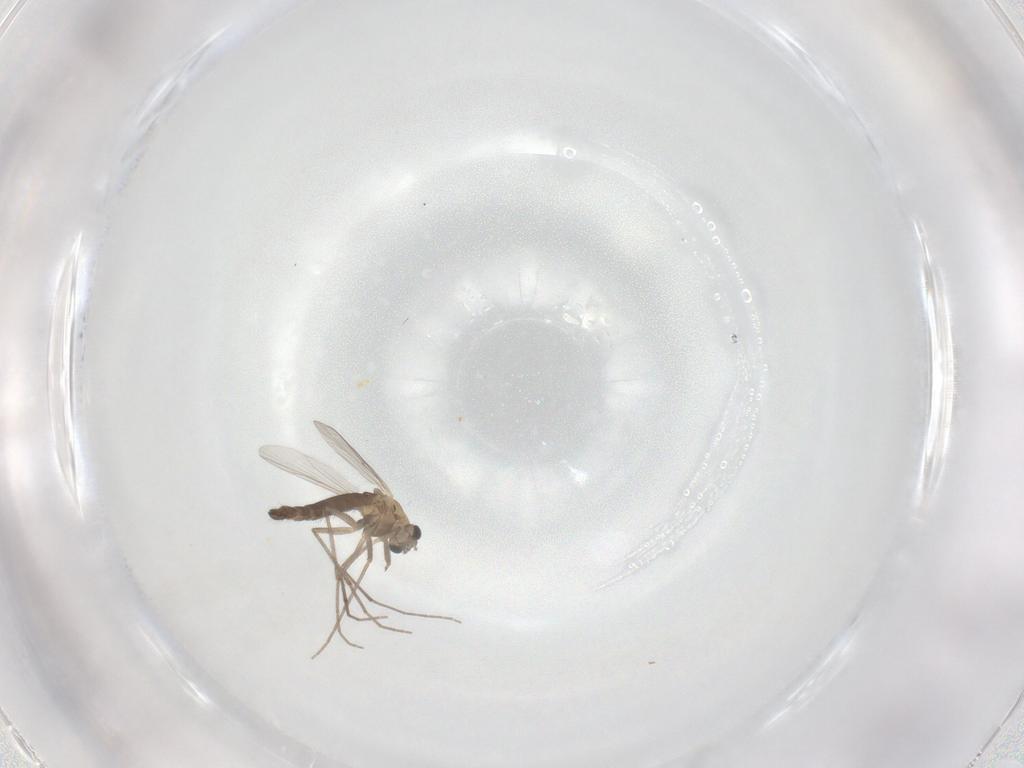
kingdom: Animalia
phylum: Arthropoda
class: Insecta
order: Diptera
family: Chironomidae
